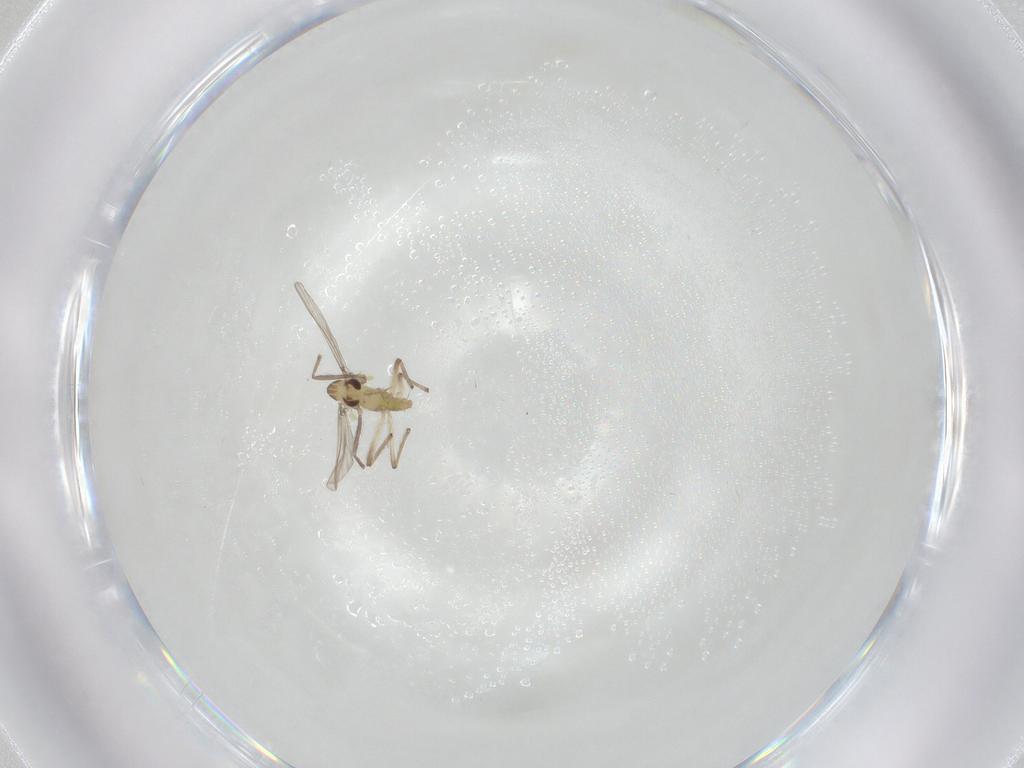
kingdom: Animalia
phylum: Arthropoda
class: Insecta
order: Diptera
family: Chironomidae
